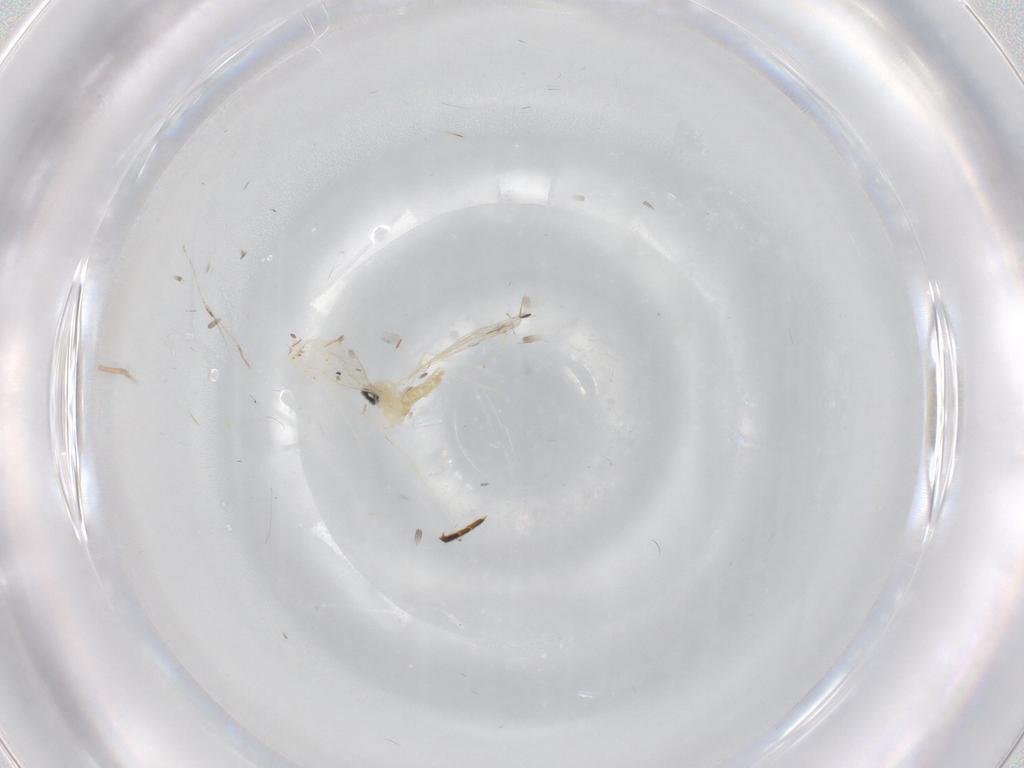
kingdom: Animalia
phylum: Arthropoda
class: Insecta
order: Diptera
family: Cecidomyiidae
